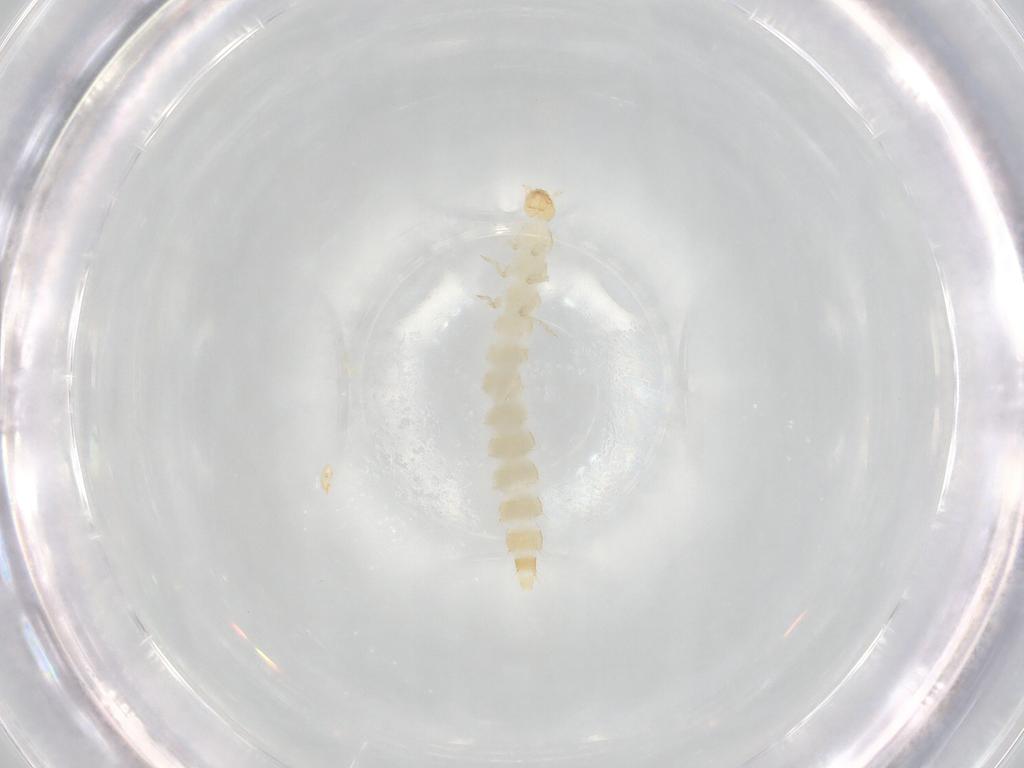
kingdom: Animalia
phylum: Arthropoda
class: Insecta
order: Coleoptera
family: Staphylinidae
